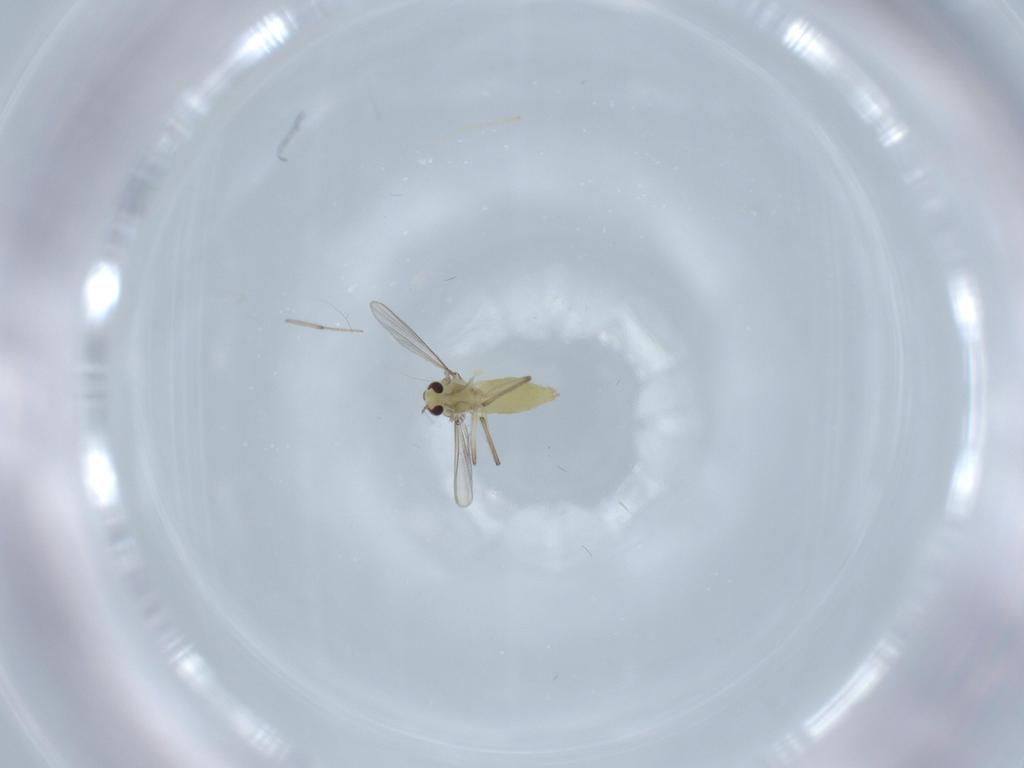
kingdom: Animalia
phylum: Arthropoda
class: Insecta
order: Diptera
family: Chironomidae
